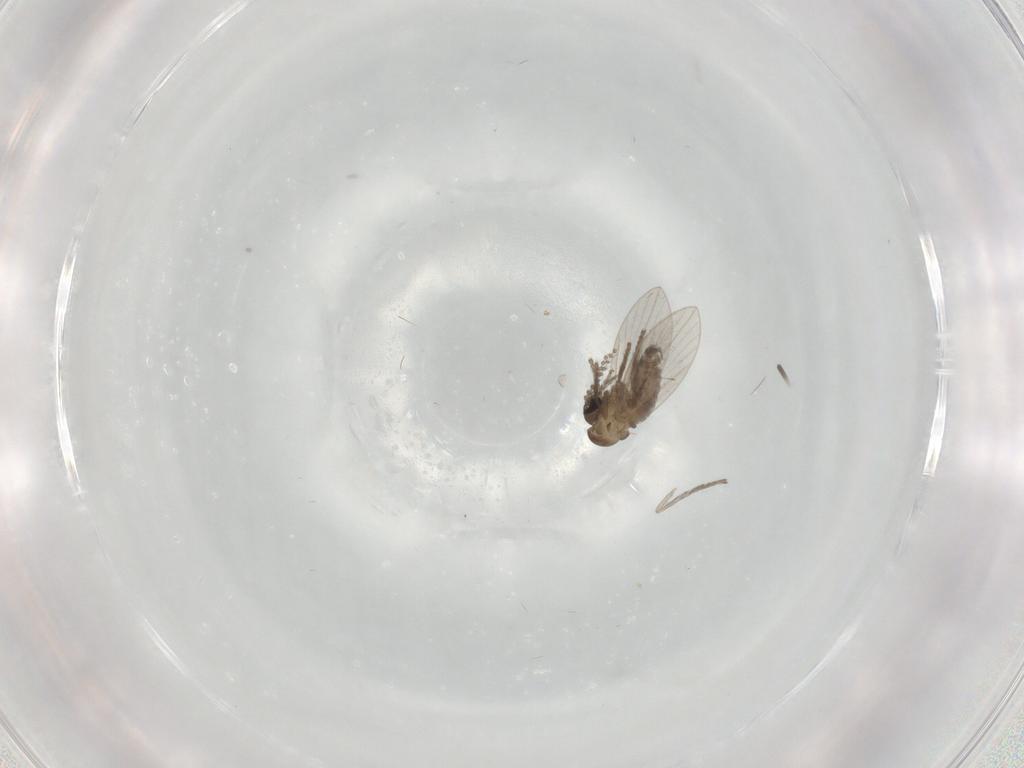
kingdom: Animalia
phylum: Arthropoda
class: Insecta
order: Diptera
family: Psychodidae
